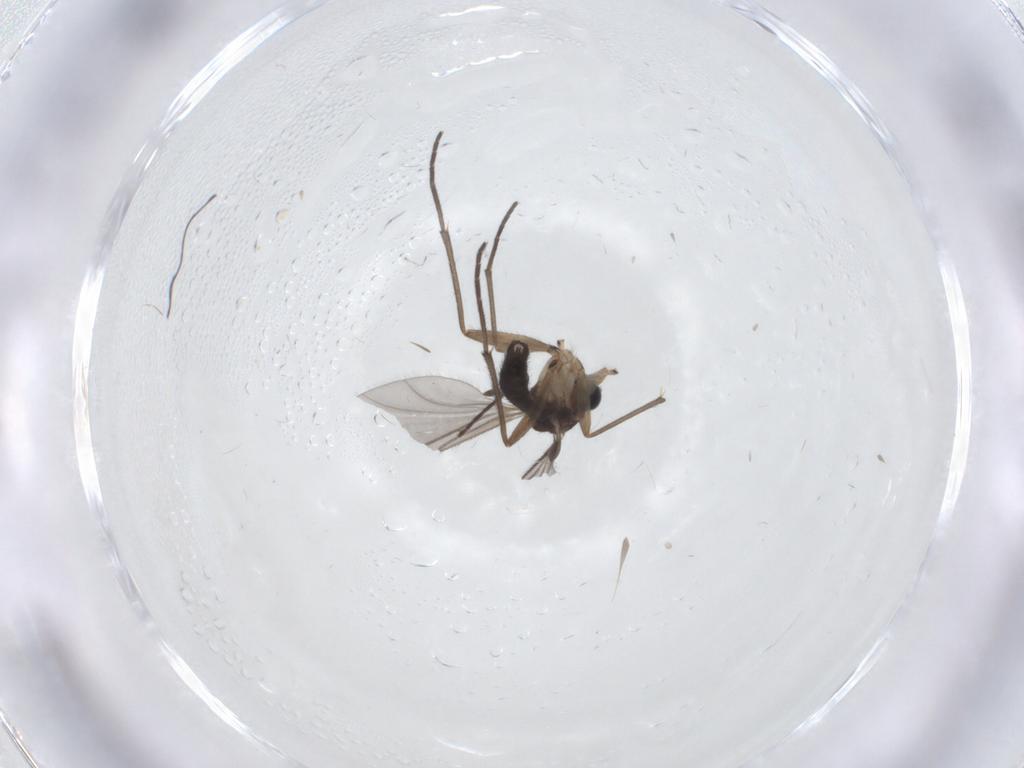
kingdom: Animalia
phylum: Arthropoda
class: Insecta
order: Diptera
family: Sciaridae
